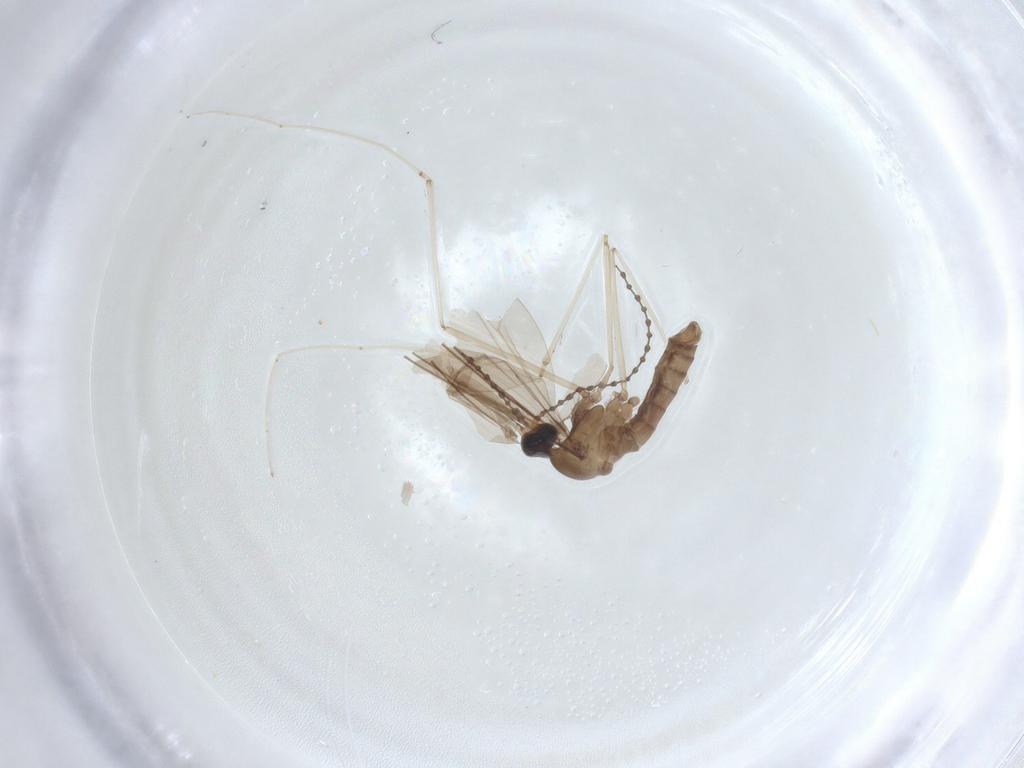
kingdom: Animalia
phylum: Arthropoda
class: Insecta
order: Diptera
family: Cecidomyiidae
